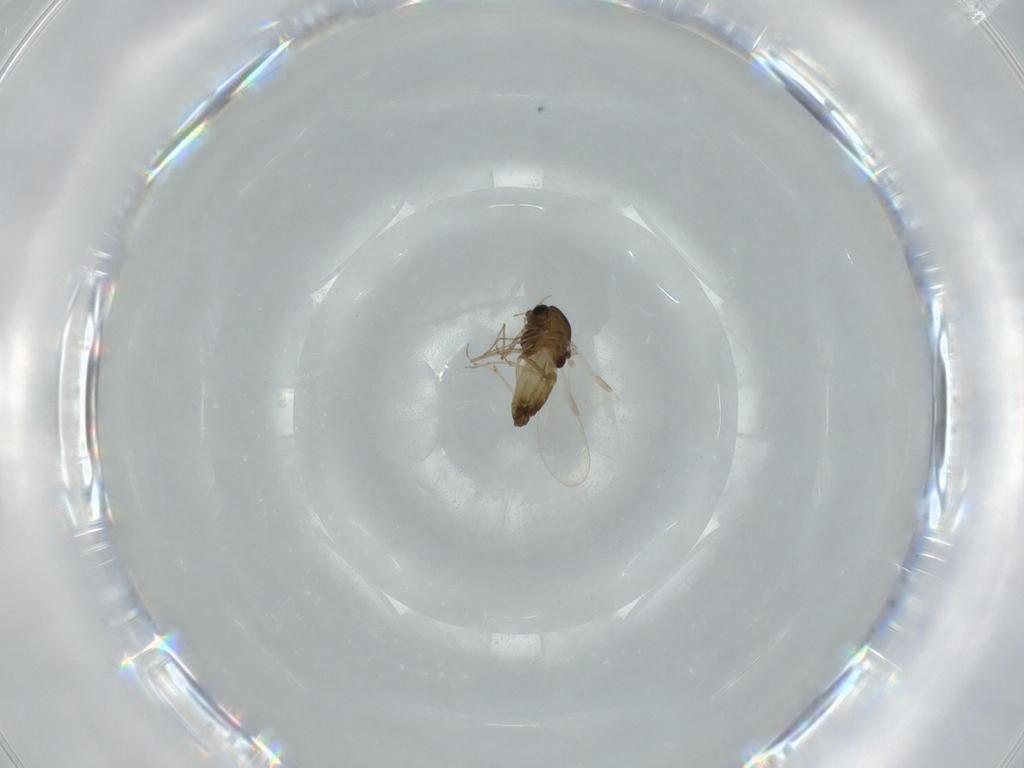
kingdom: Animalia
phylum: Arthropoda
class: Insecta
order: Diptera
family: Chironomidae
